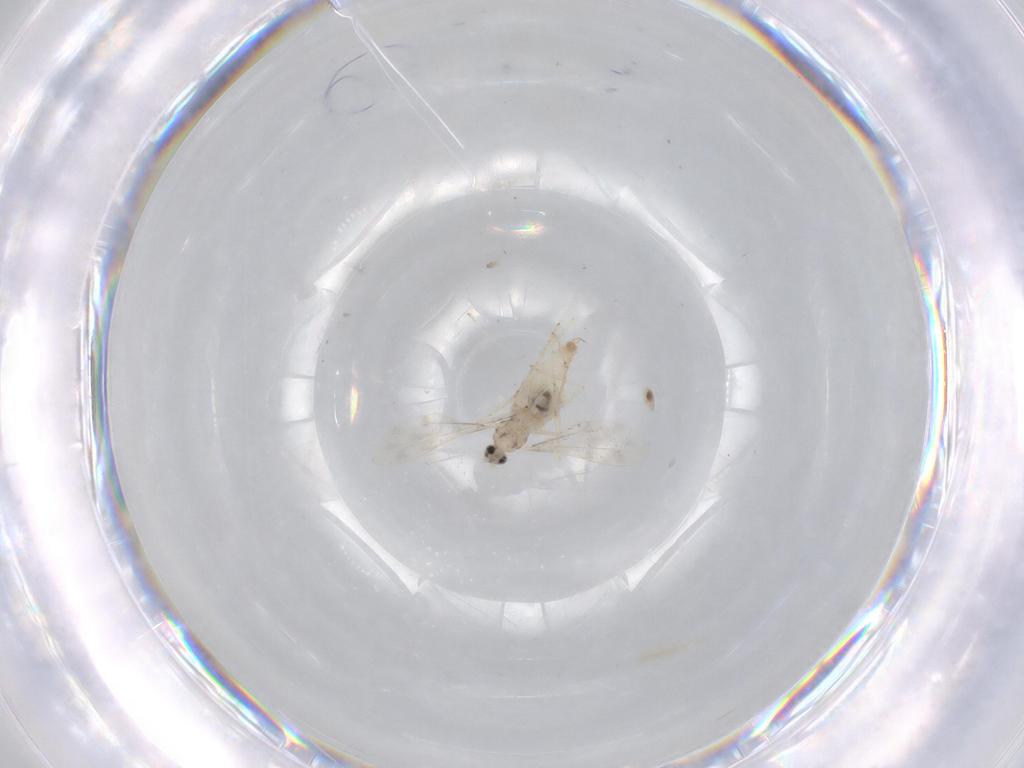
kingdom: Animalia
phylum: Arthropoda
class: Insecta
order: Diptera
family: Cecidomyiidae
